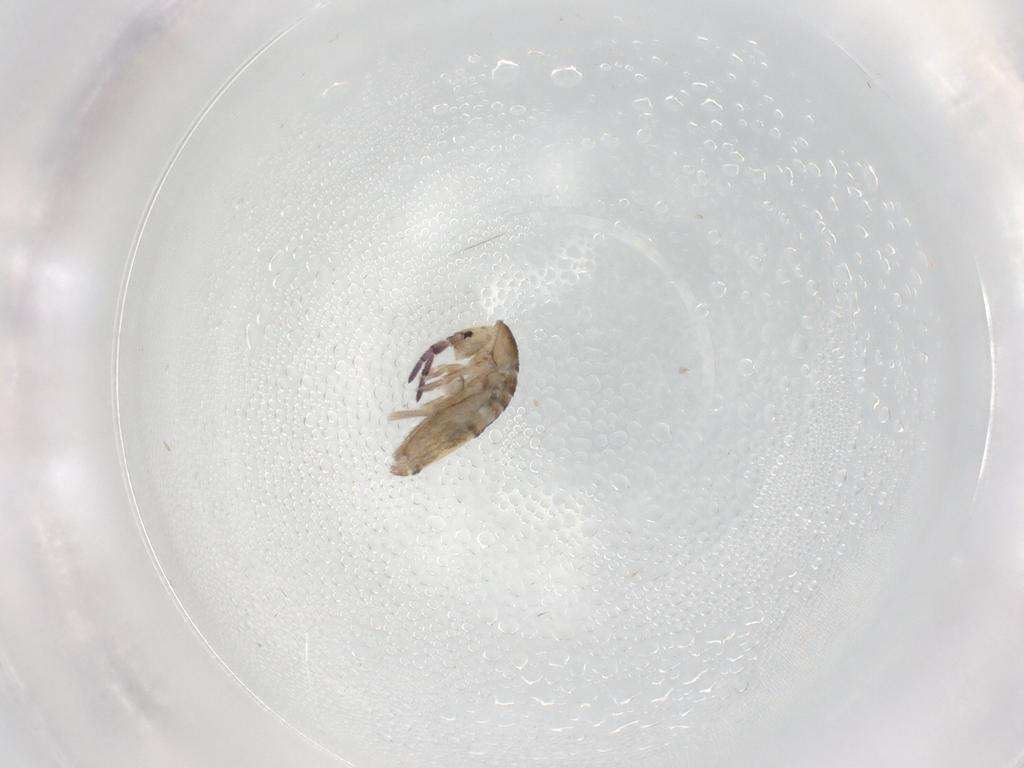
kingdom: Animalia
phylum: Arthropoda
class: Collembola
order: Entomobryomorpha
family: Entomobryidae
